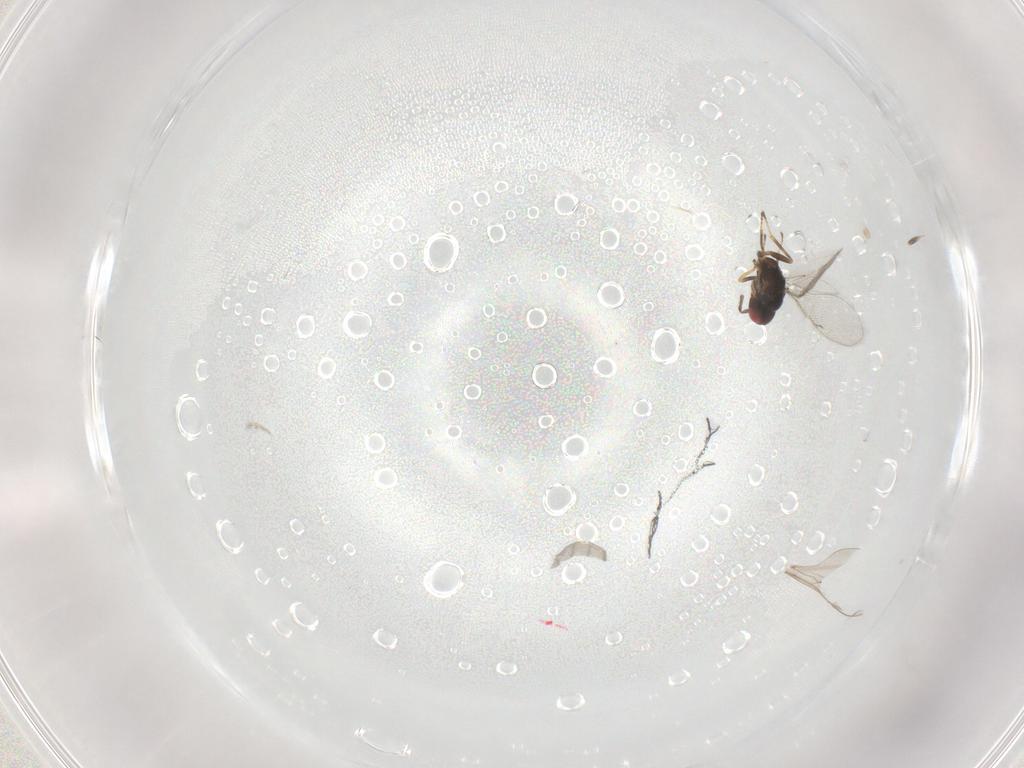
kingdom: Animalia
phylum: Arthropoda
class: Insecta
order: Hymenoptera
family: Eulophidae
